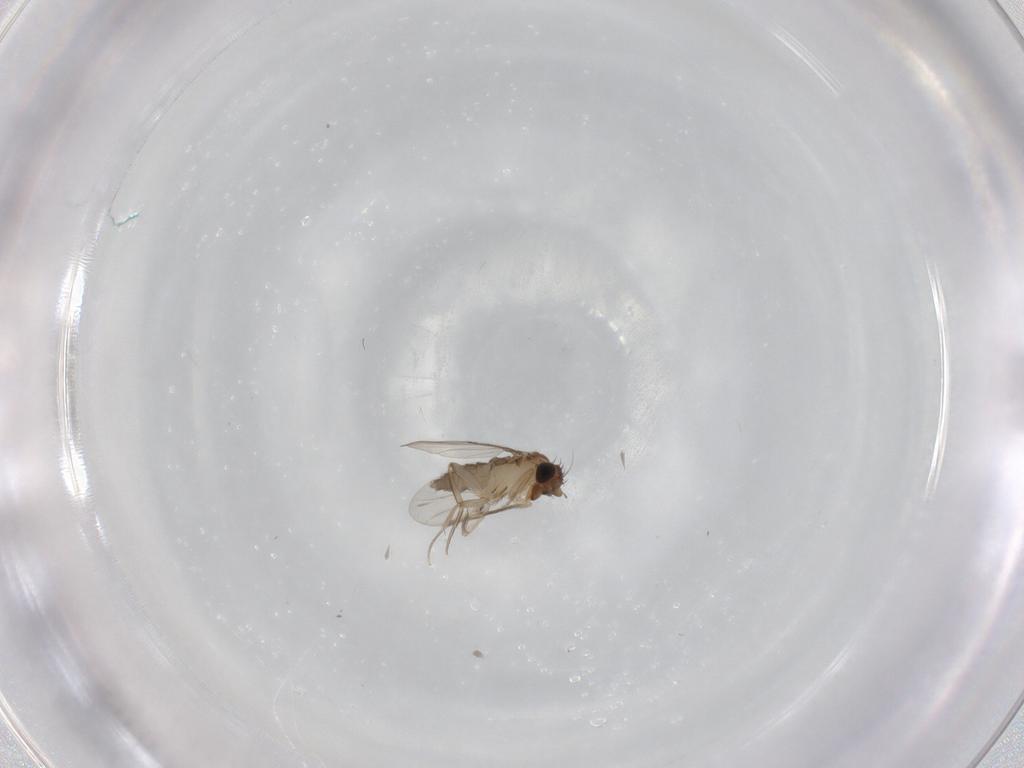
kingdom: Animalia
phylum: Arthropoda
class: Insecta
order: Diptera
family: Phoridae
